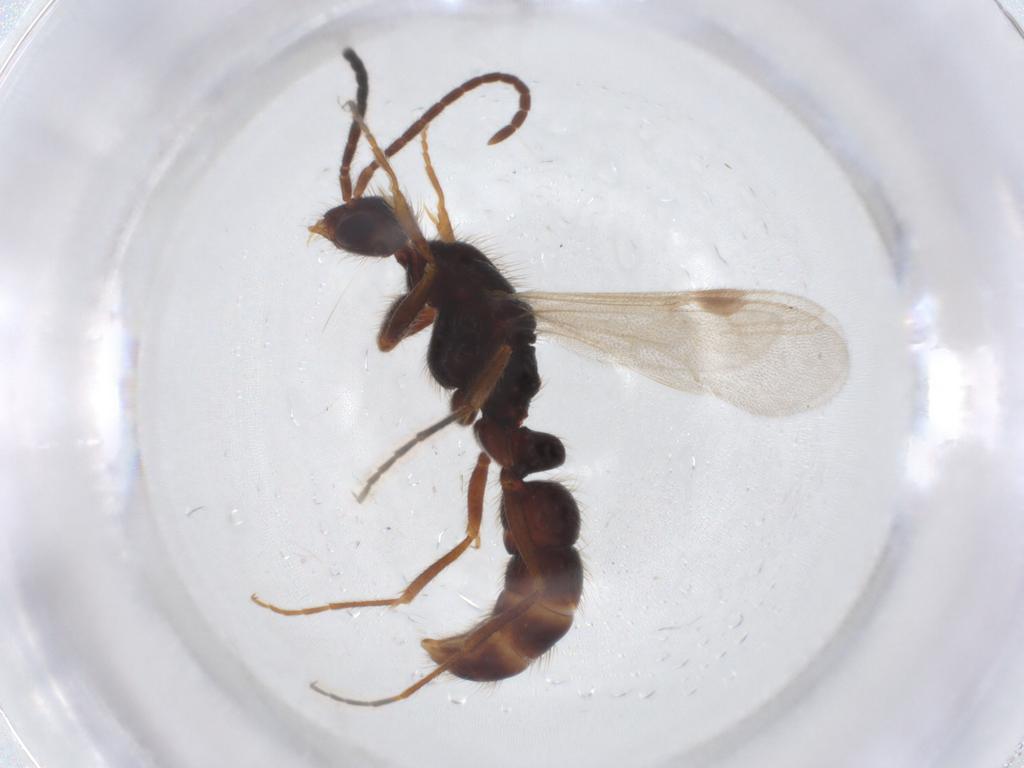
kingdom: Animalia
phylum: Arthropoda
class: Insecta
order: Hymenoptera
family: Formicidae
